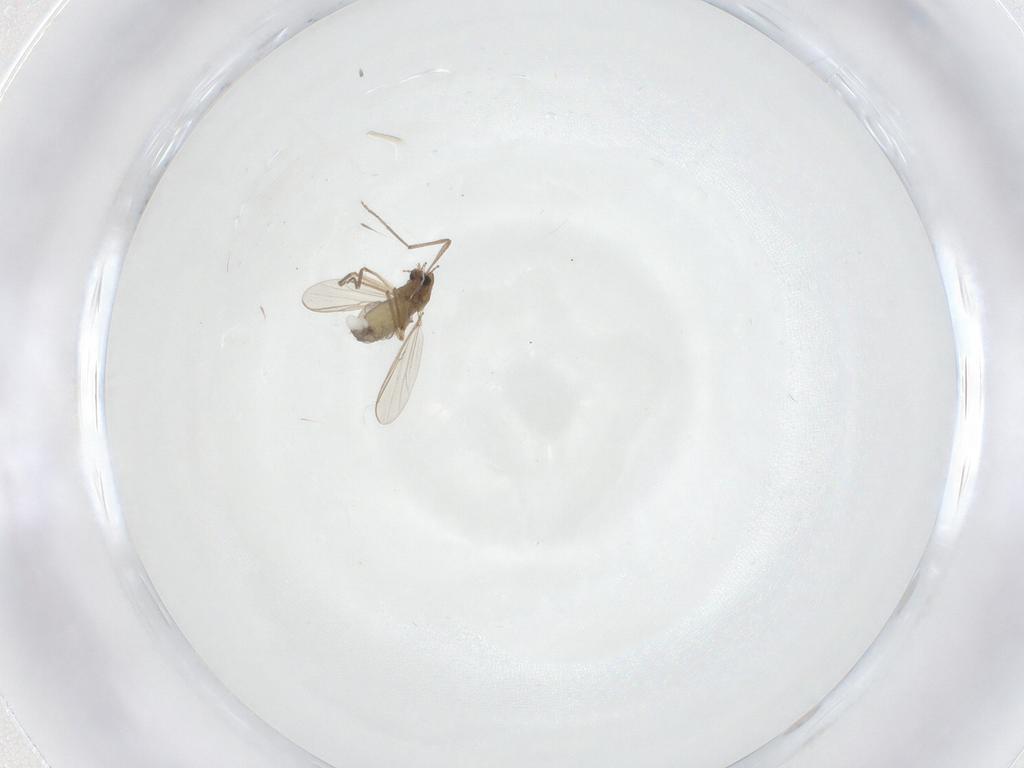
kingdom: Animalia
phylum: Arthropoda
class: Insecta
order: Diptera
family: Chironomidae
